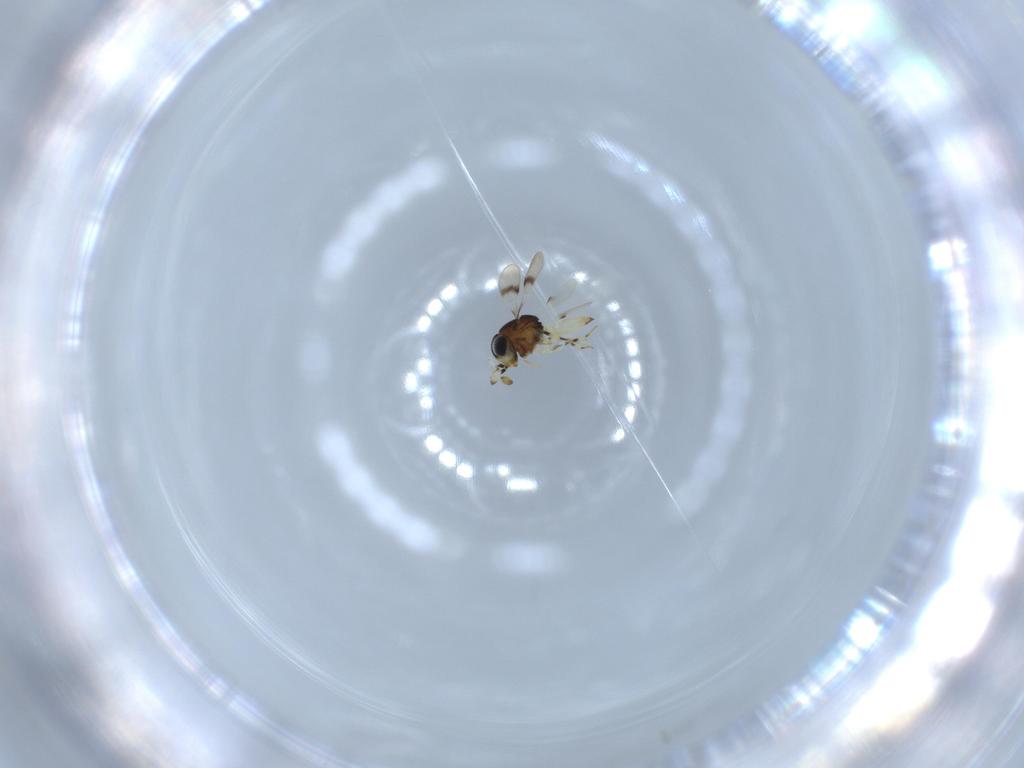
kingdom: Animalia
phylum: Arthropoda
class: Insecta
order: Hymenoptera
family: Scelionidae
